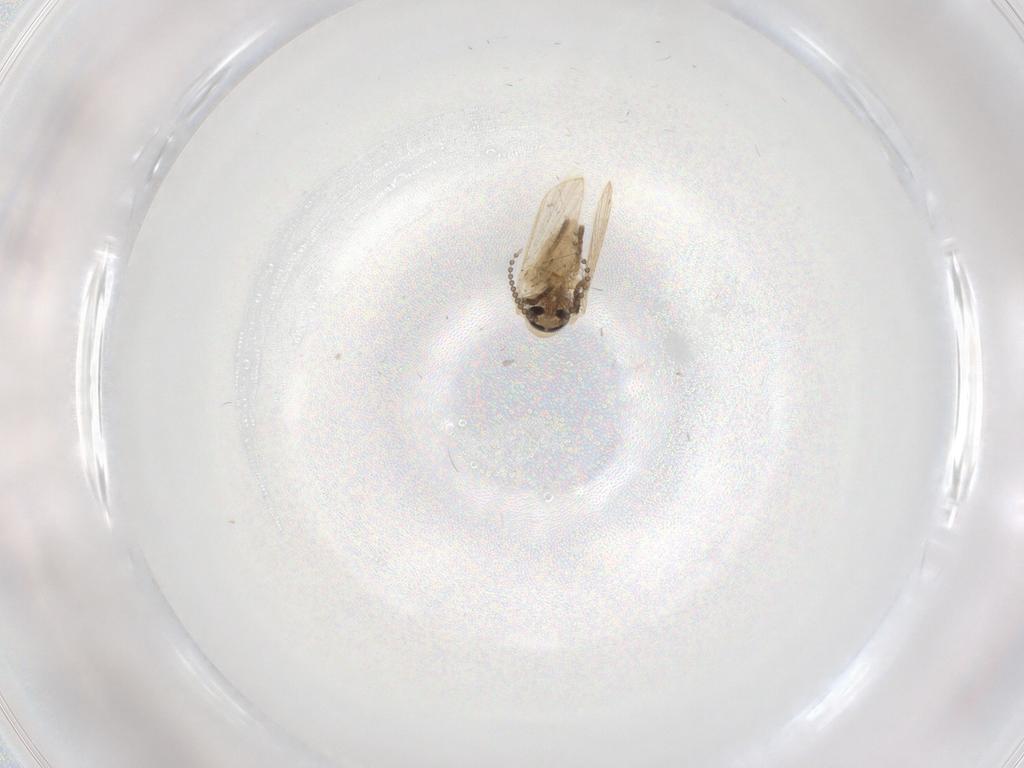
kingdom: Animalia
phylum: Arthropoda
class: Insecta
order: Diptera
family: Psychodidae
